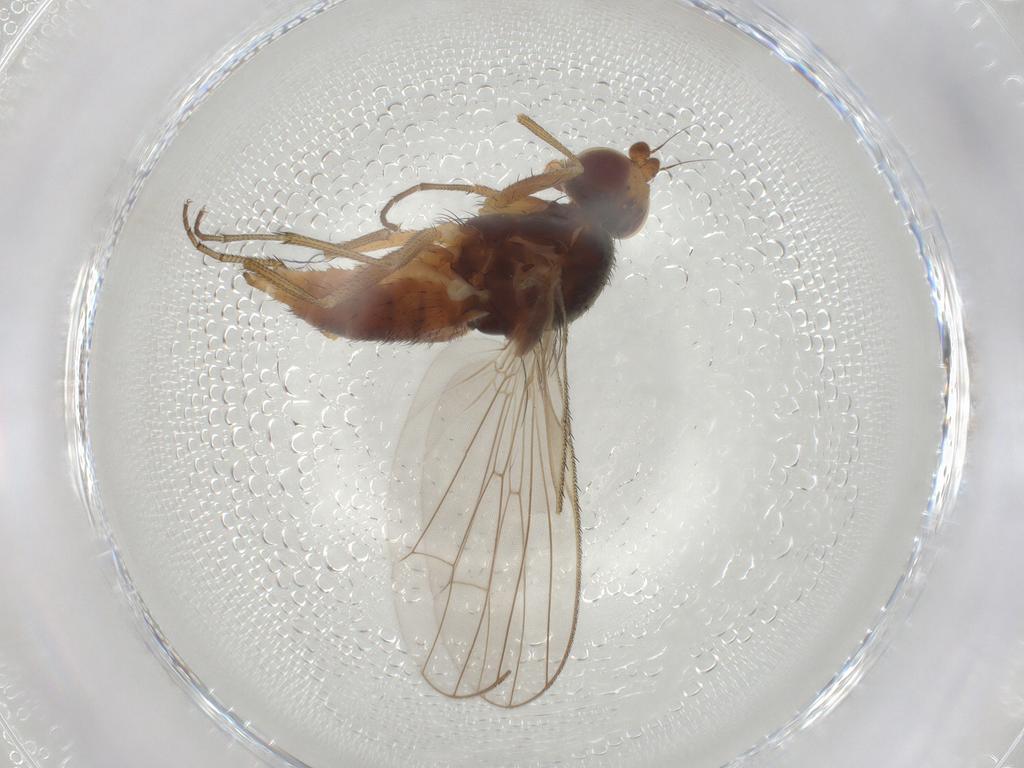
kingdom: Animalia
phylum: Arthropoda
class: Insecta
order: Diptera
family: Heleomyzidae
